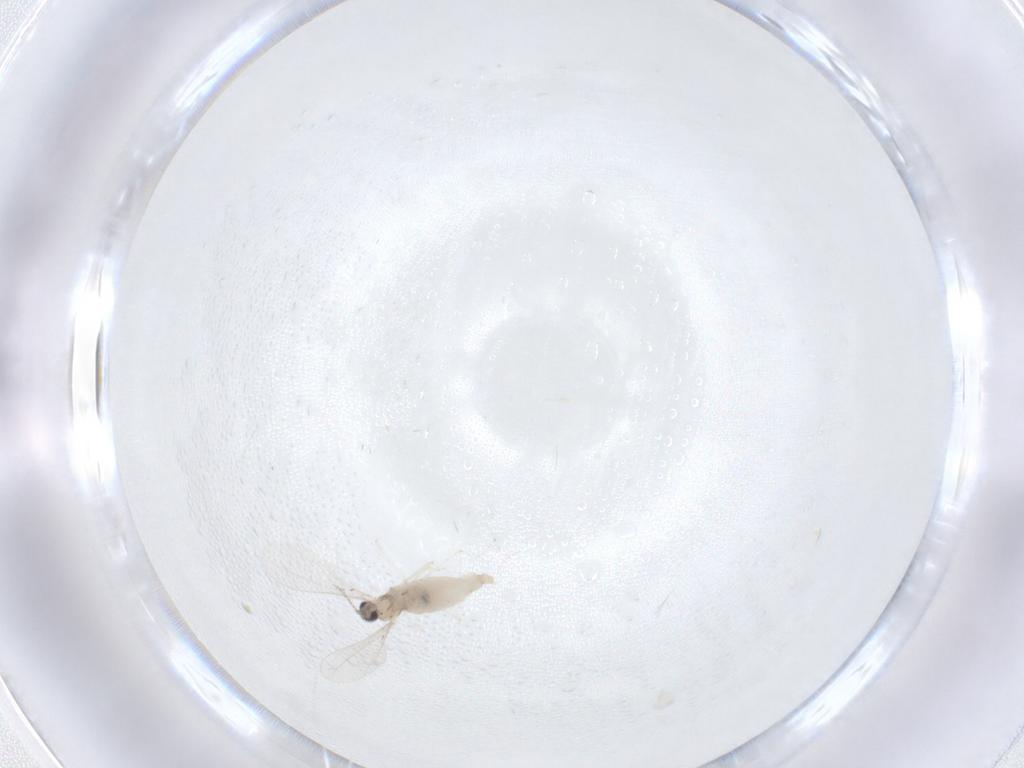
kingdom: Animalia
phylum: Arthropoda
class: Insecta
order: Diptera
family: Cecidomyiidae
